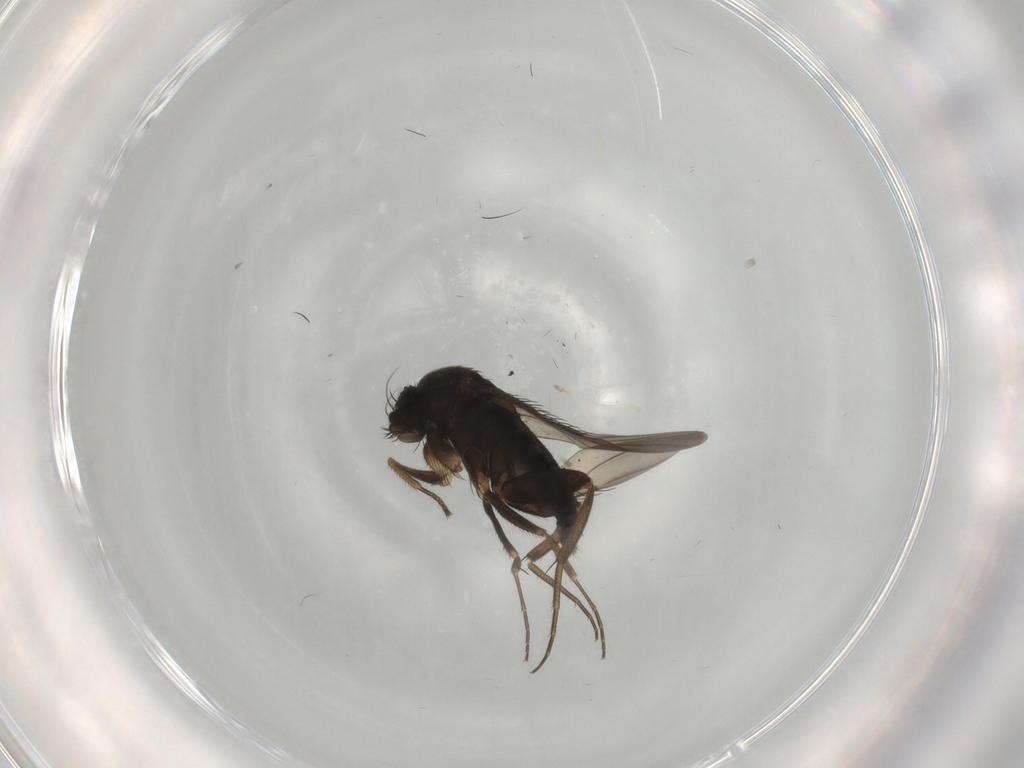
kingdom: Animalia
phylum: Arthropoda
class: Insecta
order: Diptera
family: Phoridae
